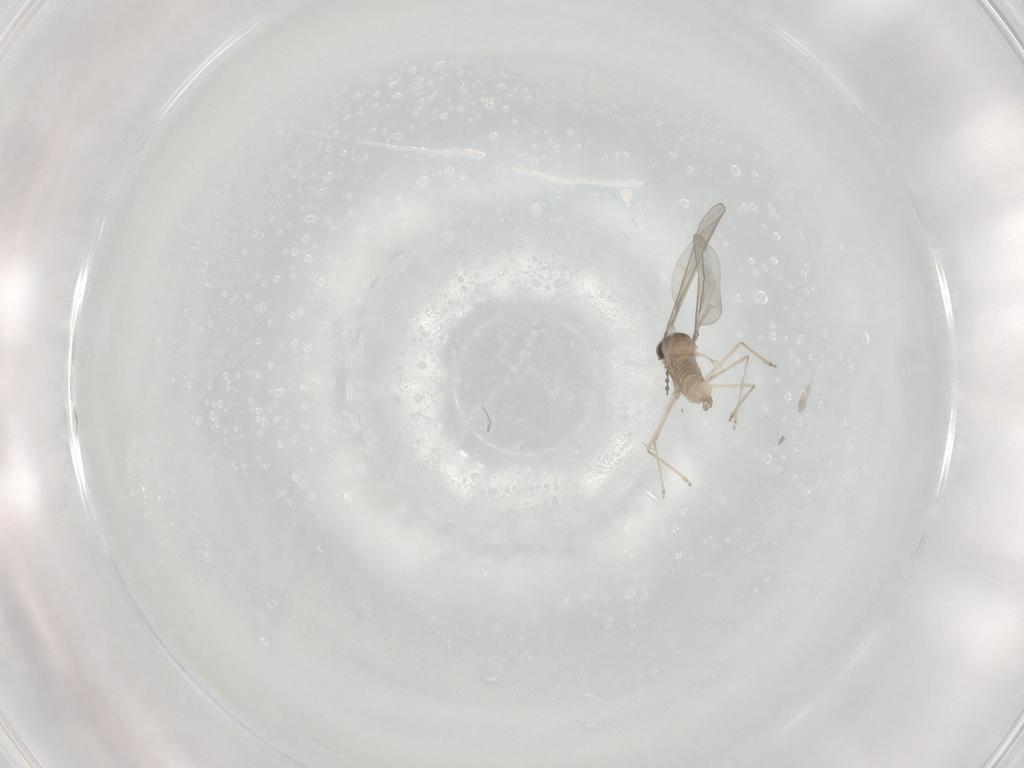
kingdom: Animalia
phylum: Arthropoda
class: Insecta
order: Diptera
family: Cecidomyiidae
